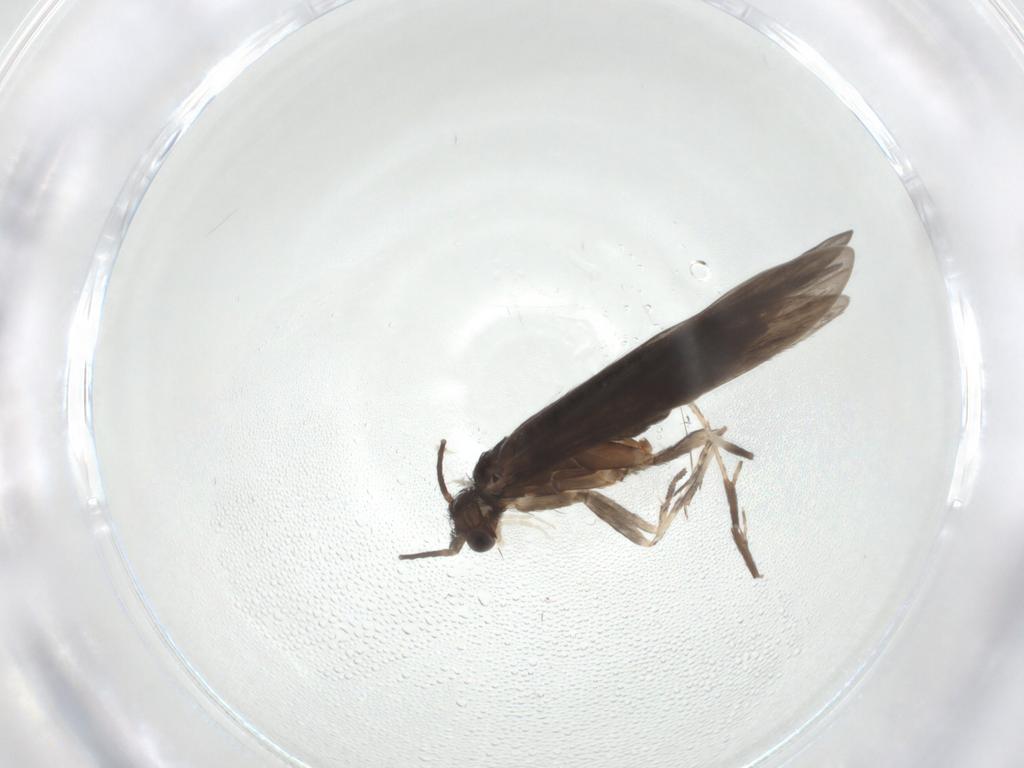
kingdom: Animalia
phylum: Arthropoda
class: Insecta
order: Trichoptera
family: Xiphocentronidae
